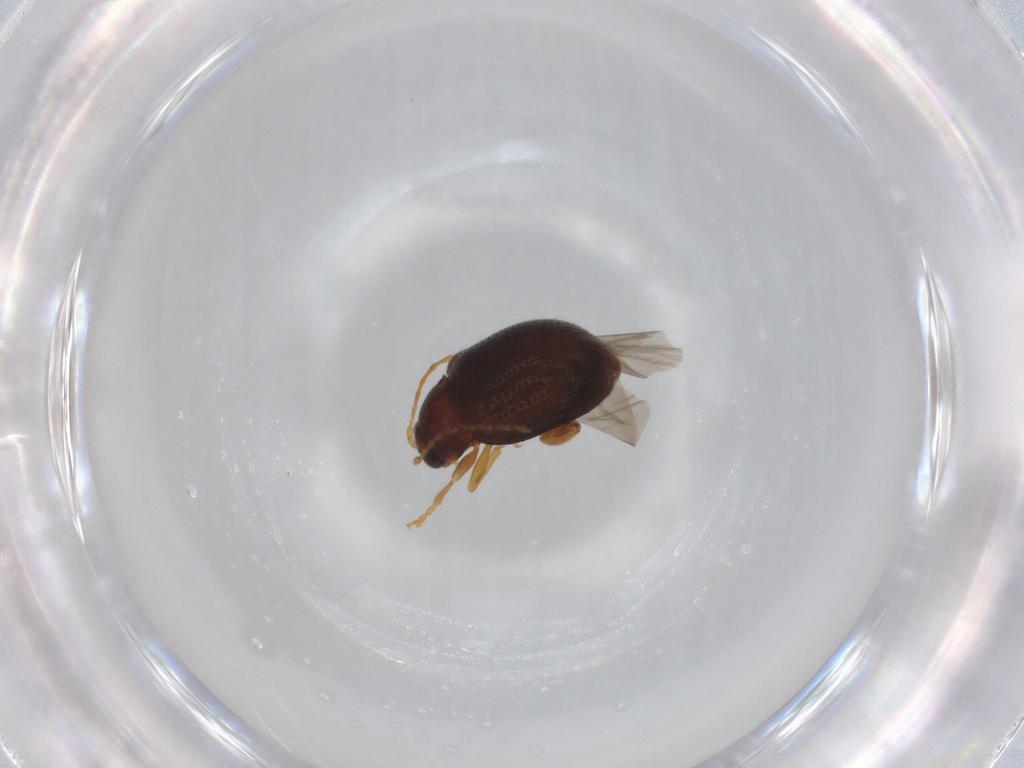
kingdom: Animalia
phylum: Arthropoda
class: Insecta
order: Coleoptera
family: Chrysomelidae
